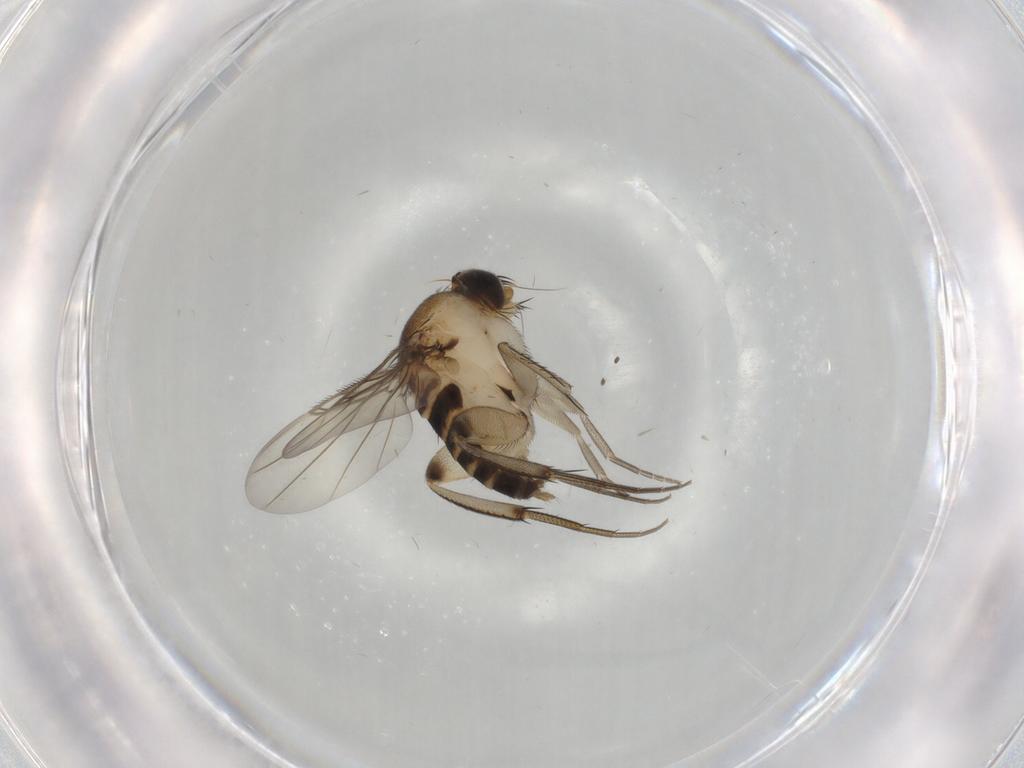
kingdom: Animalia
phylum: Arthropoda
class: Insecta
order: Diptera
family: Phoridae
